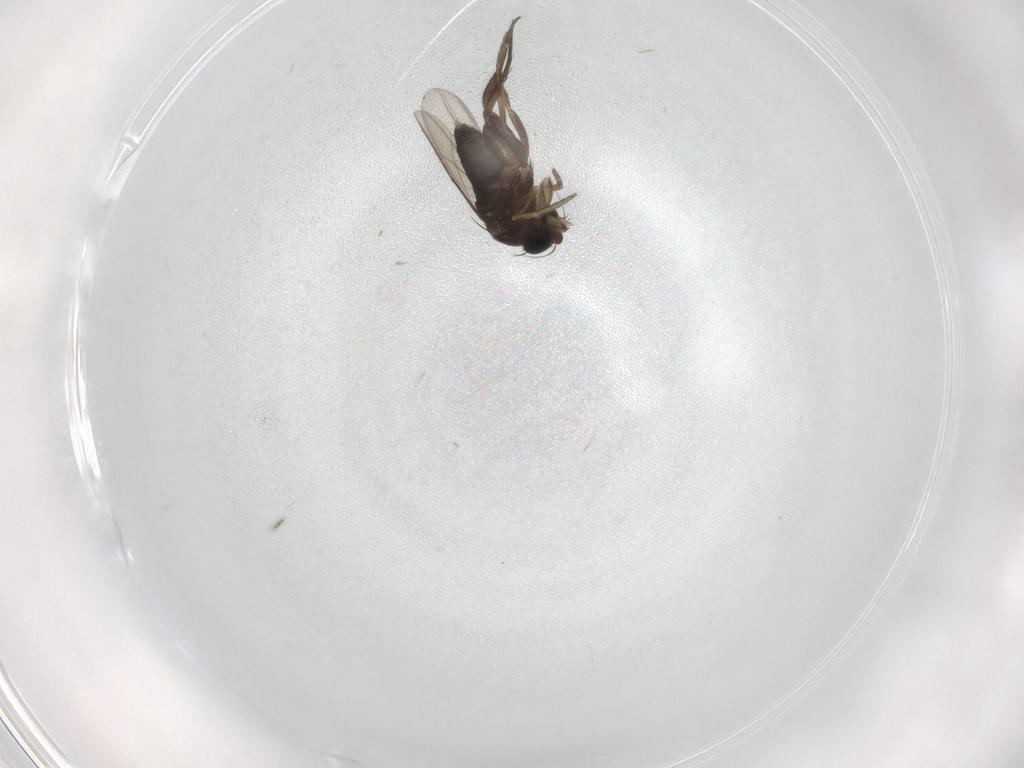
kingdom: Animalia
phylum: Arthropoda
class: Insecta
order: Diptera
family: Phoridae
